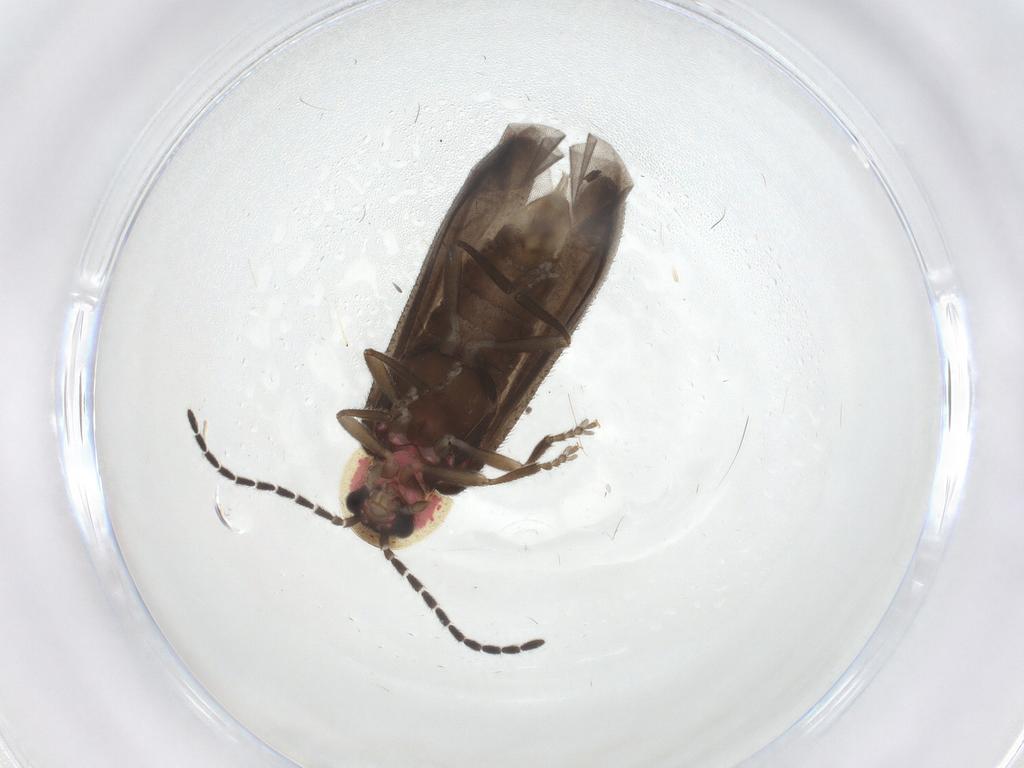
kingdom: Animalia
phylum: Arthropoda
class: Insecta
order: Coleoptera
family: Lampyridae
